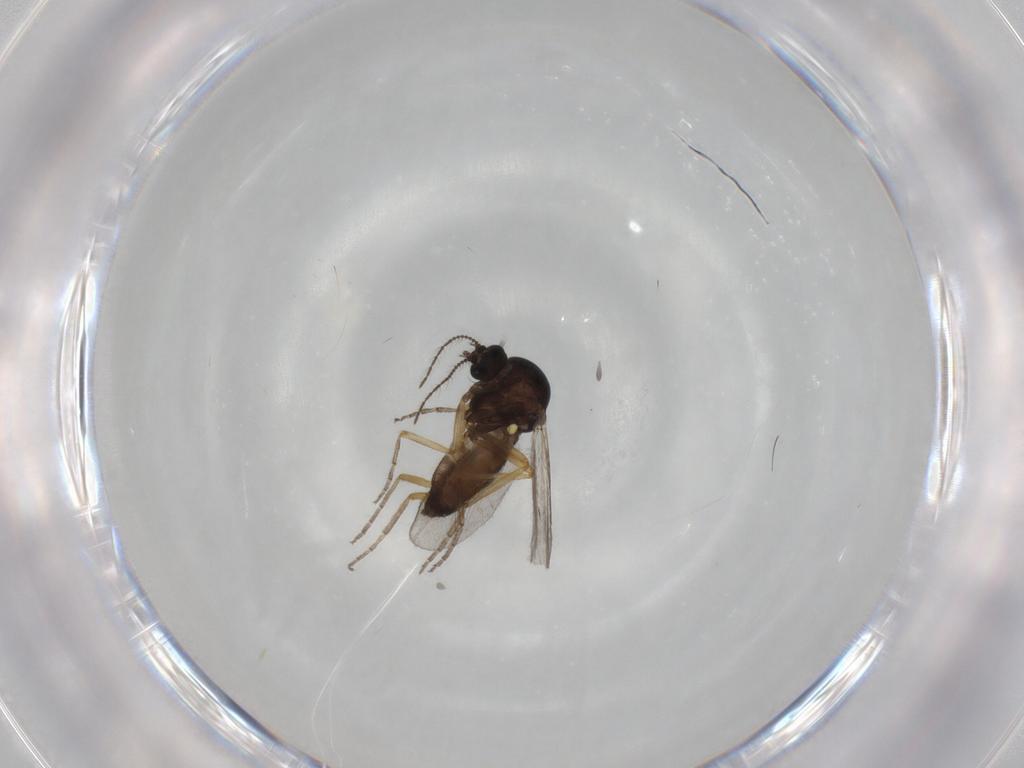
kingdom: Animalia
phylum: Arthropoda
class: Insecta
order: Diptera
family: Ceratopogonidae
